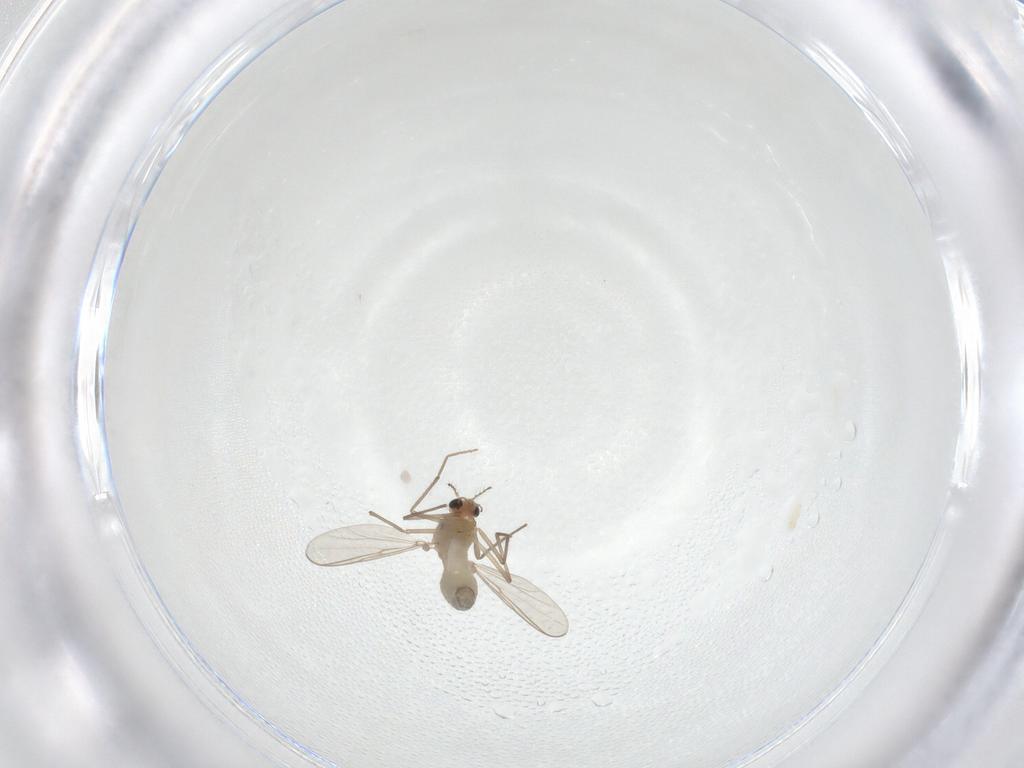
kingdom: Animalia
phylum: Arthropoda
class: Insecta
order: Diptera
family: Chironomidae
